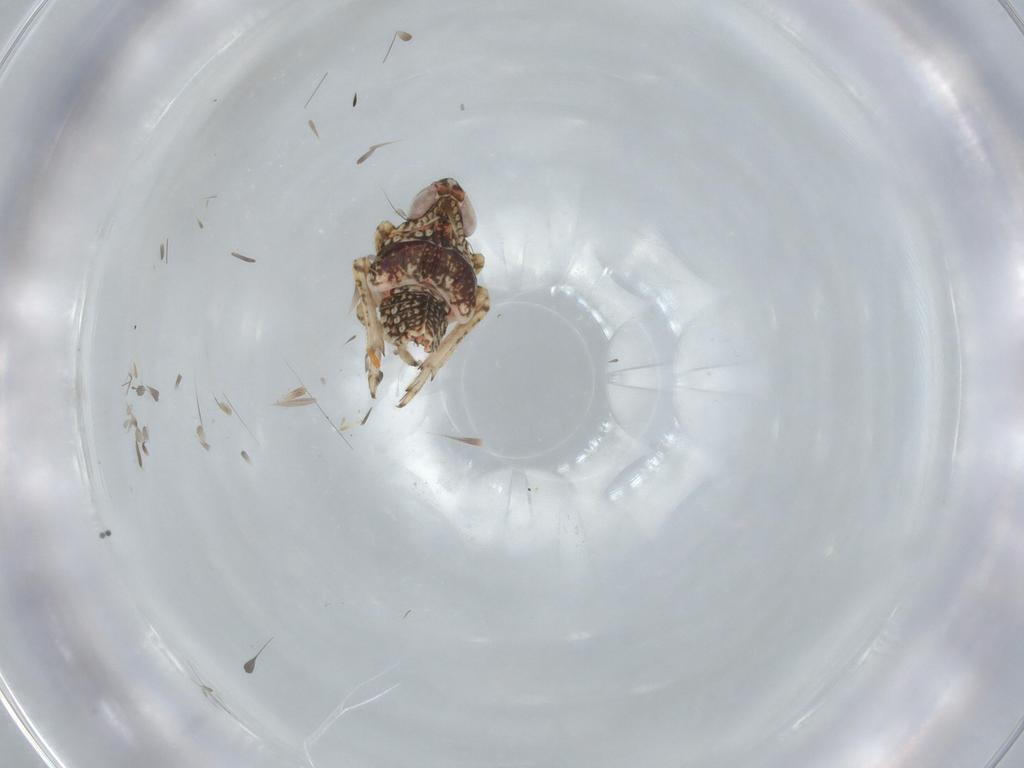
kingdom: Animalia
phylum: Arthropoda
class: Insecta
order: Hemiptera
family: Issidae
